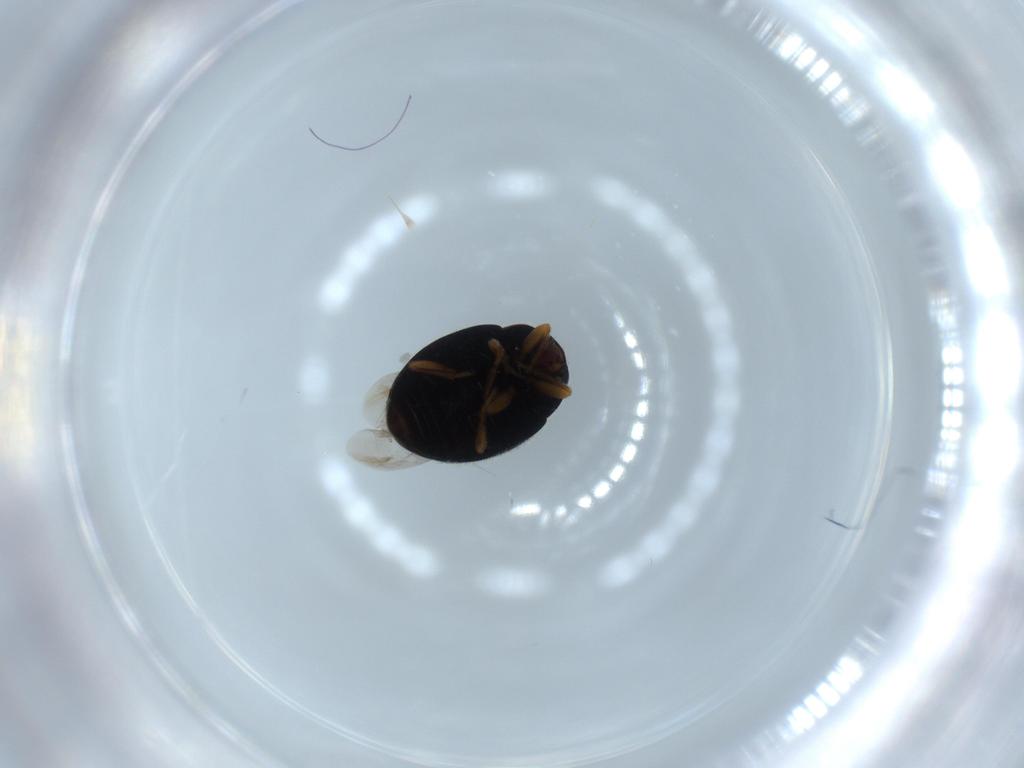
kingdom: Animalia
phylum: Arthropoda
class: Insecta
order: Coleoptera
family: Coccinellidae
